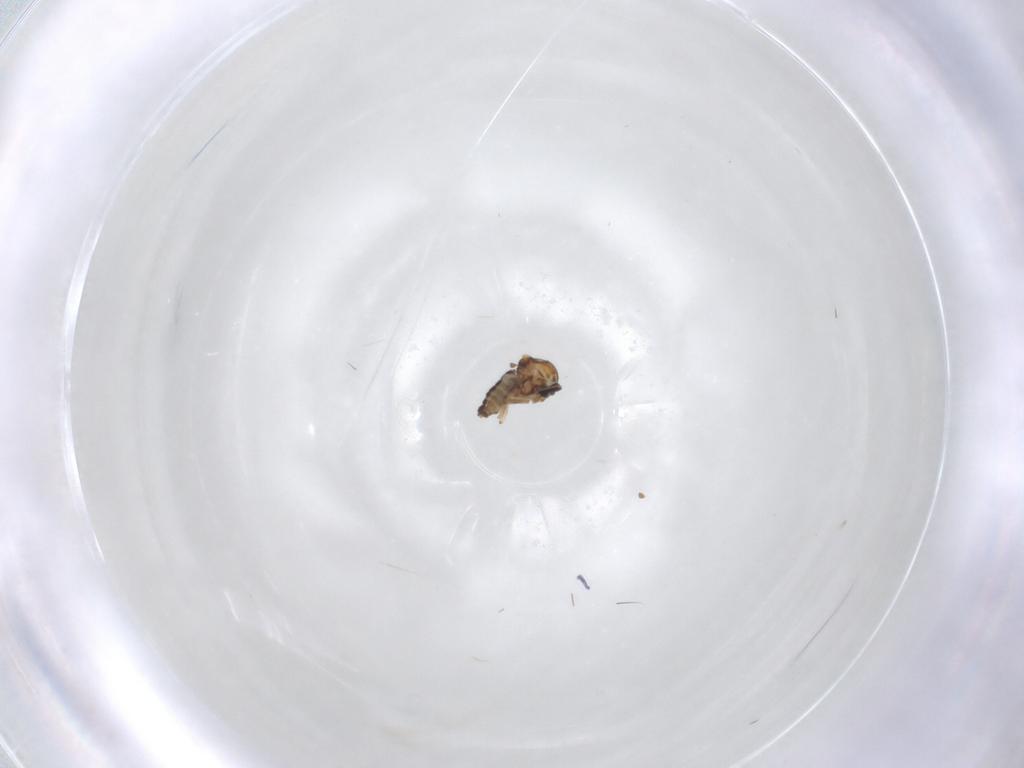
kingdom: Animalia
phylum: Arthropoda
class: Insecta
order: Diptera
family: Ceratopogonidae
